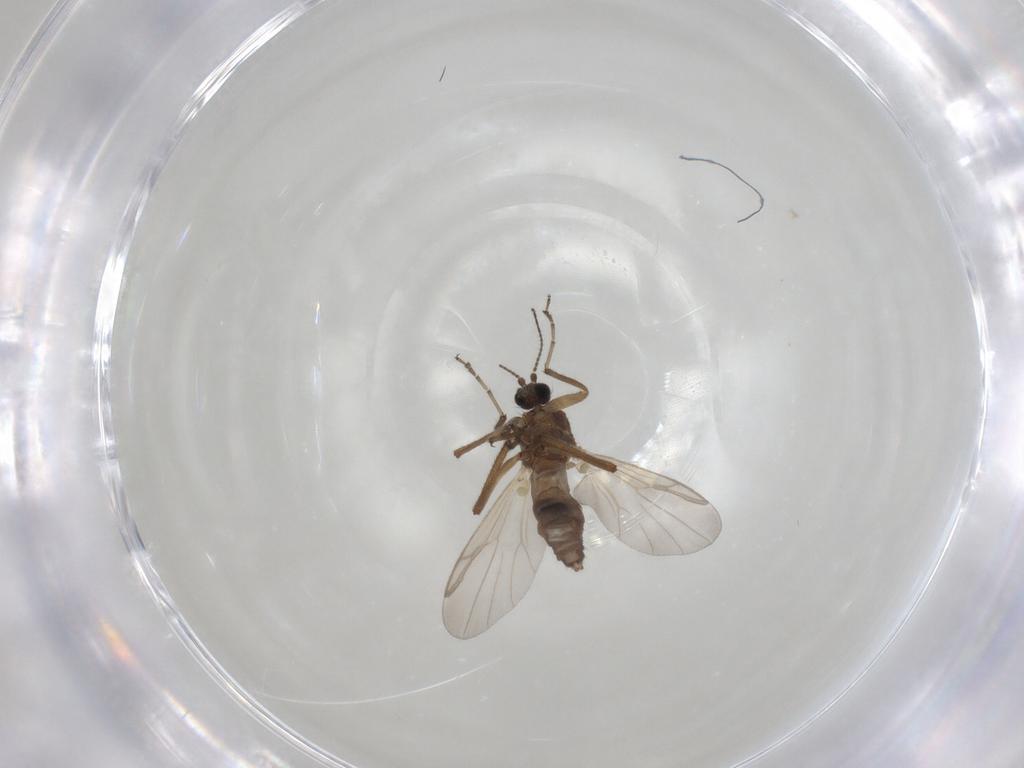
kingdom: Animalia
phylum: Arthropoda
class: Insecta
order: Diptera
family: Ceratopogonidae
